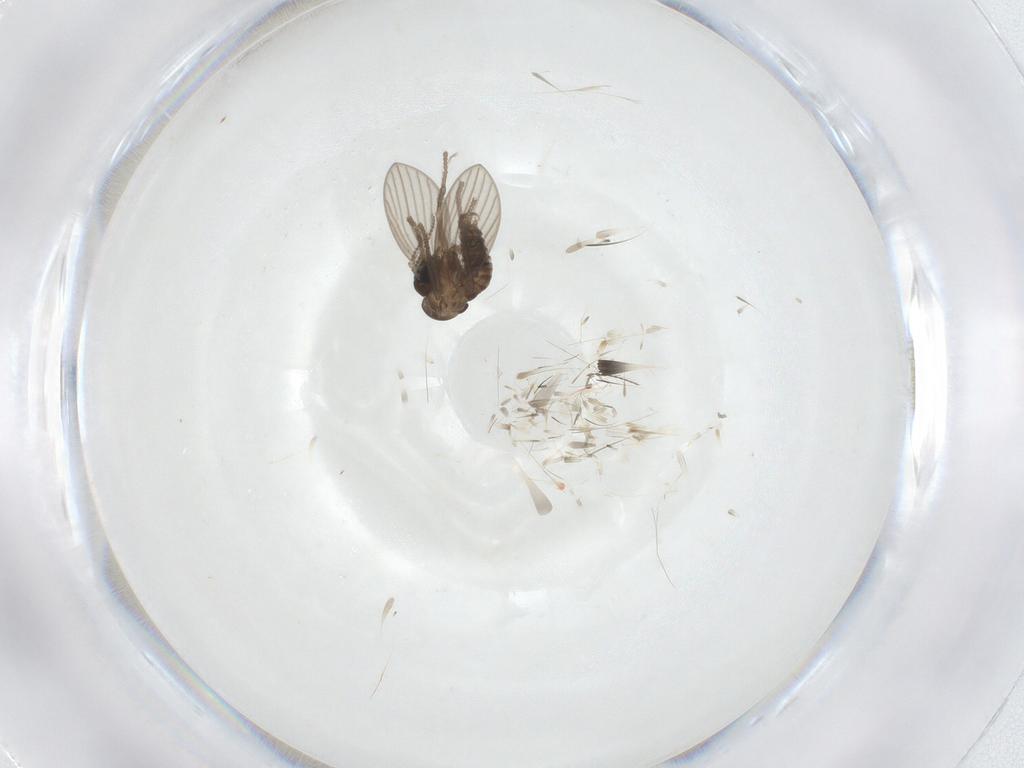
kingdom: Animalia
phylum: Arthropoda
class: Insecta
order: Diptera
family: Psychodidae
